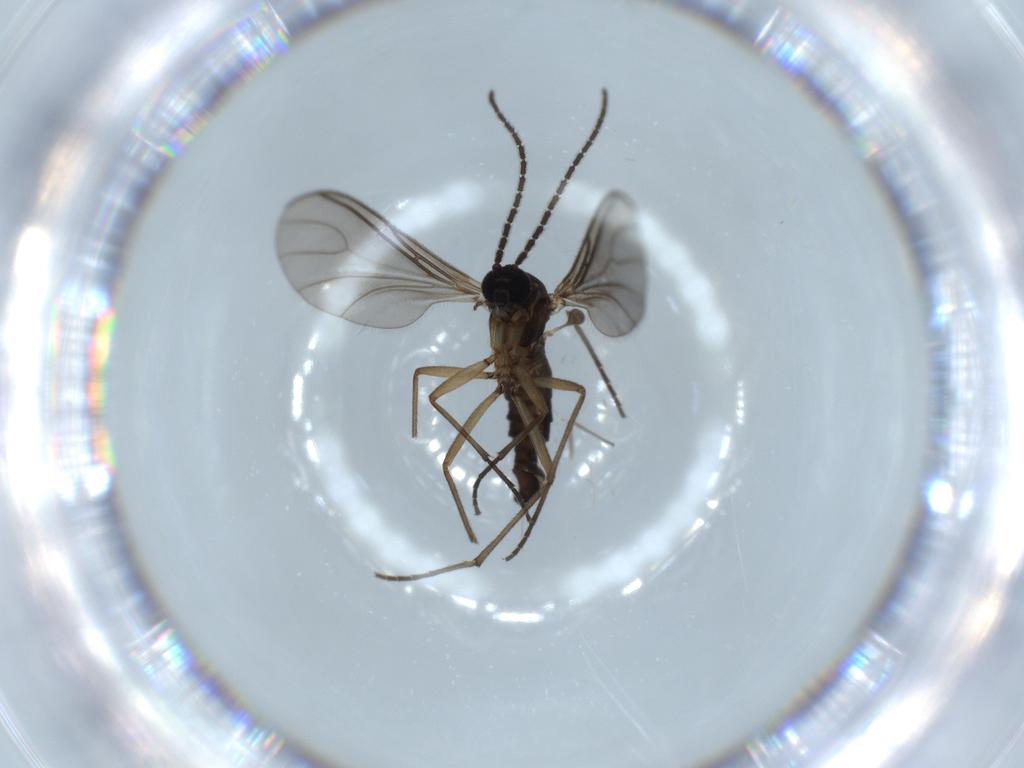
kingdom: Animalia
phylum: Arthropoda
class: Insecta
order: Diptera
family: Sciaridae
